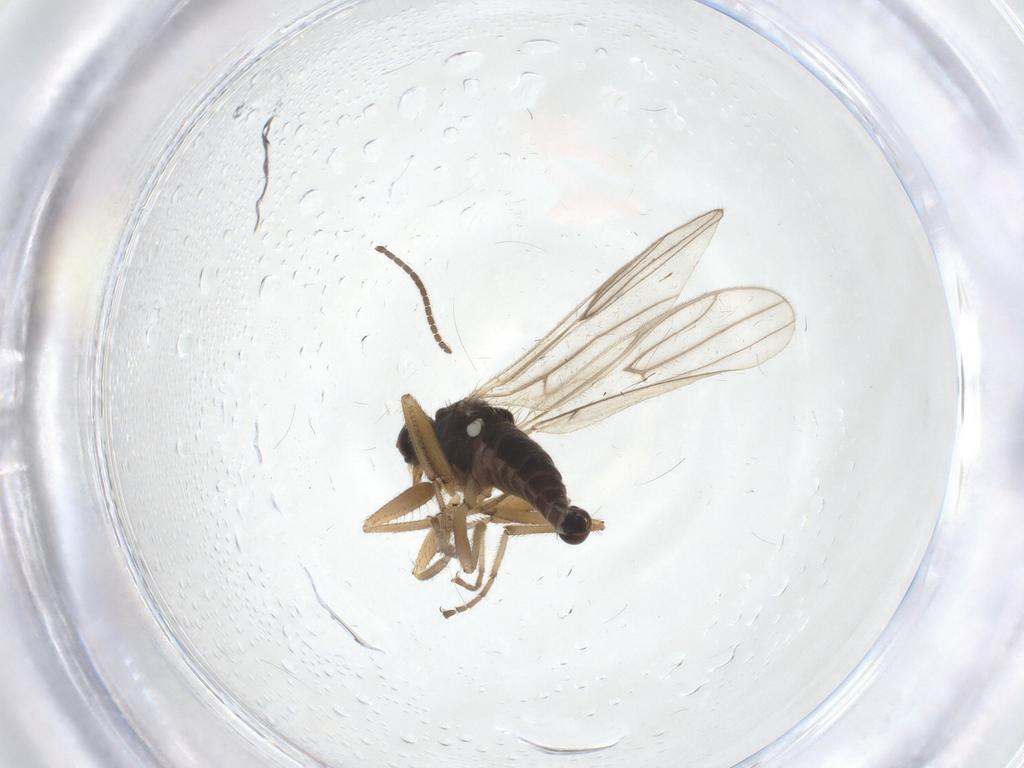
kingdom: Animalia
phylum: Arthropoda
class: Insecta
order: Diptera
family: Hybotidae
